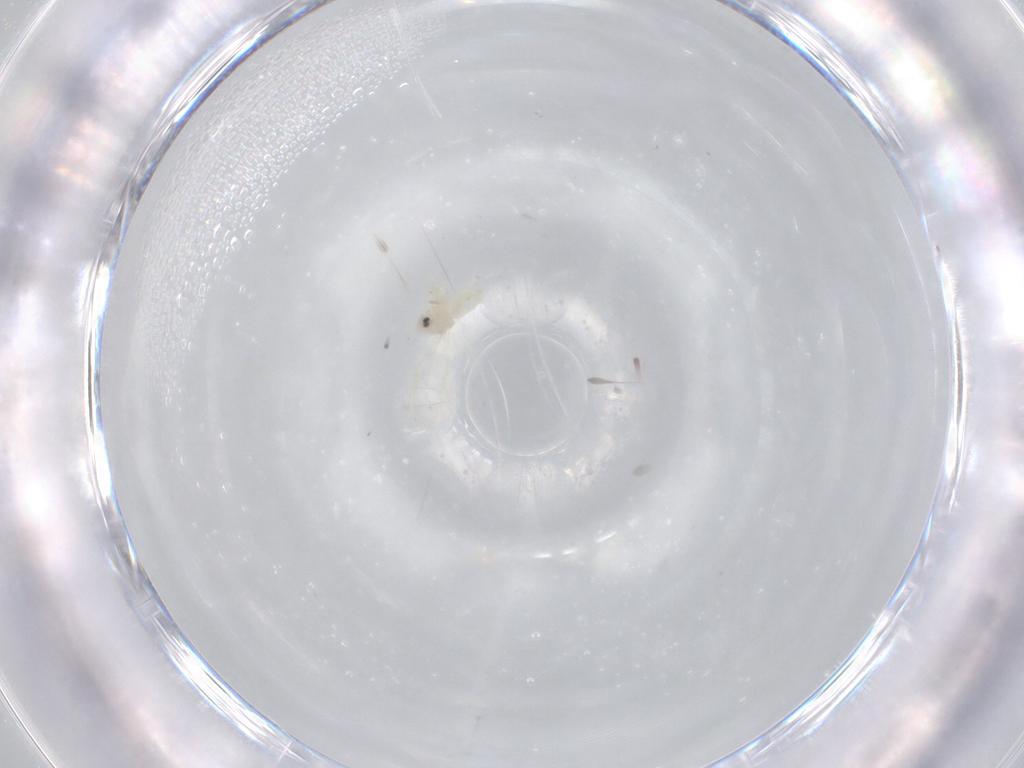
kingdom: Animalia
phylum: Arthropoda
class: Insecta
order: Hemiptera
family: Aleyrodidae
